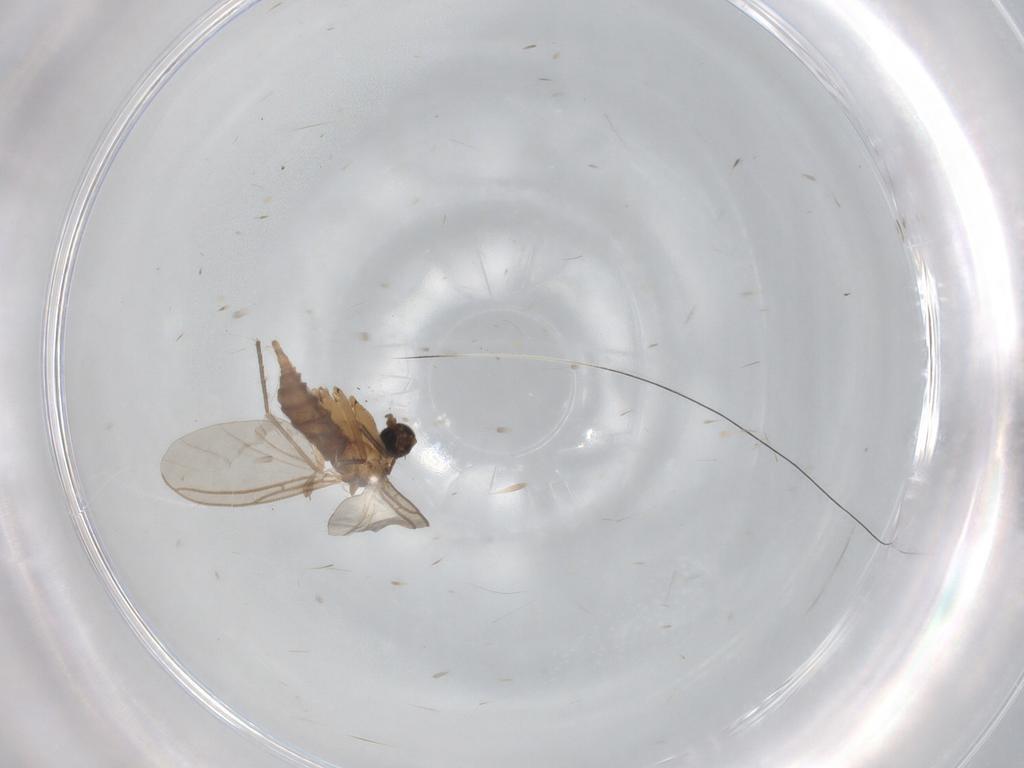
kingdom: Animalia
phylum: Arthropoda
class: Insecta
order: Diptera
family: Sciaridae
